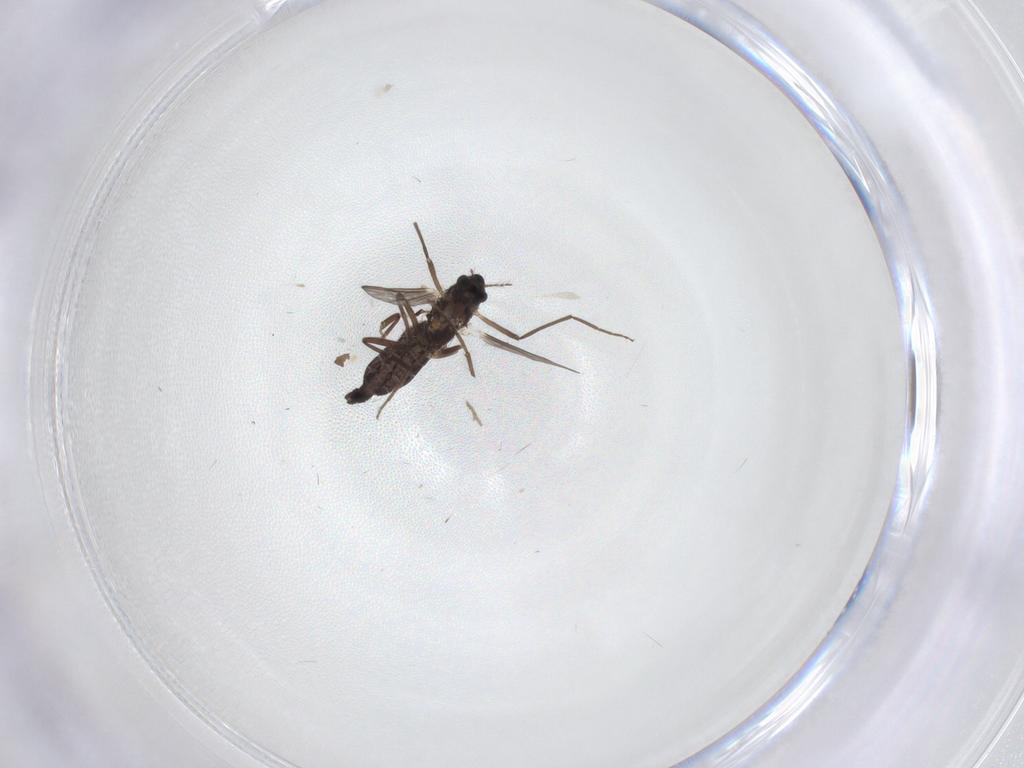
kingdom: Animalia
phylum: Arthropoda
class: Insecta
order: Diptera
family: Chironomidae
